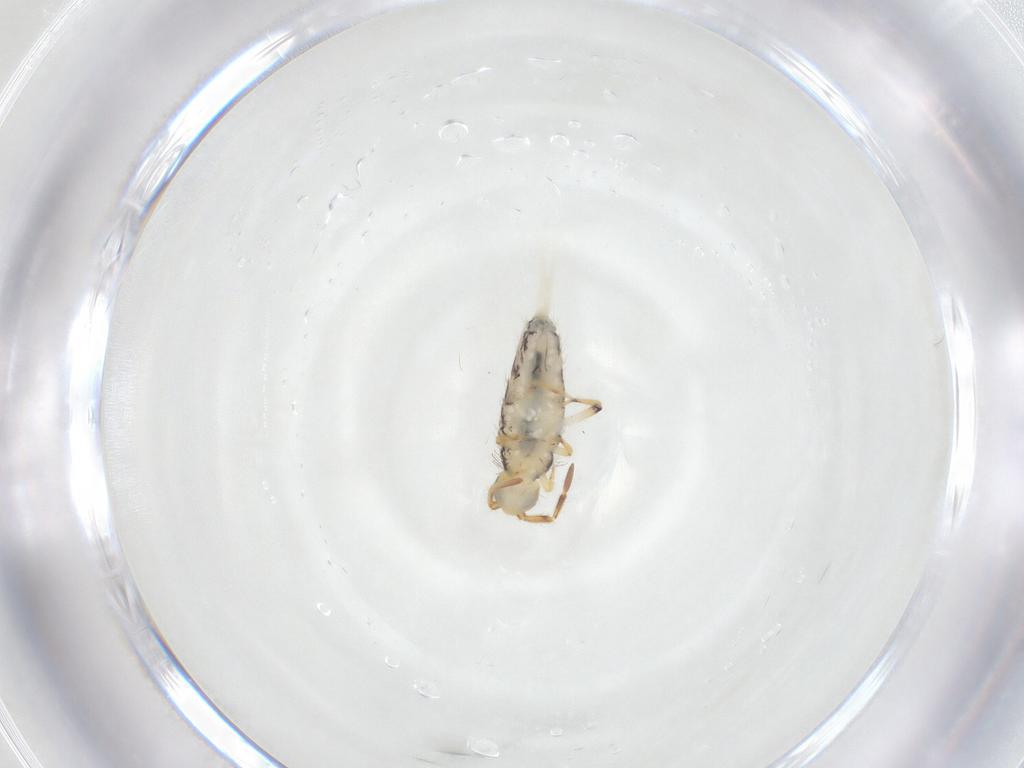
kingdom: Animalia
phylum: Arthropoda
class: Collembola
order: Entomobryomorpha
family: Isotomidae
